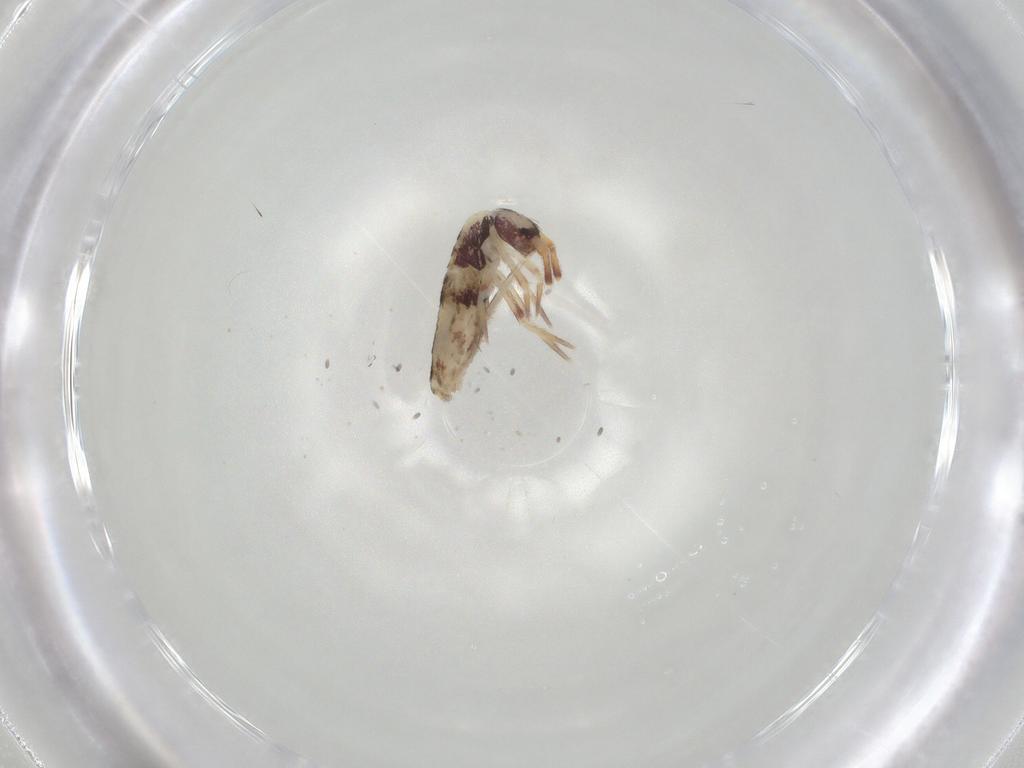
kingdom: Animalia
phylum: Arthropoda
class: Collembola
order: Entomobryomorpha
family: Entomobryidae
